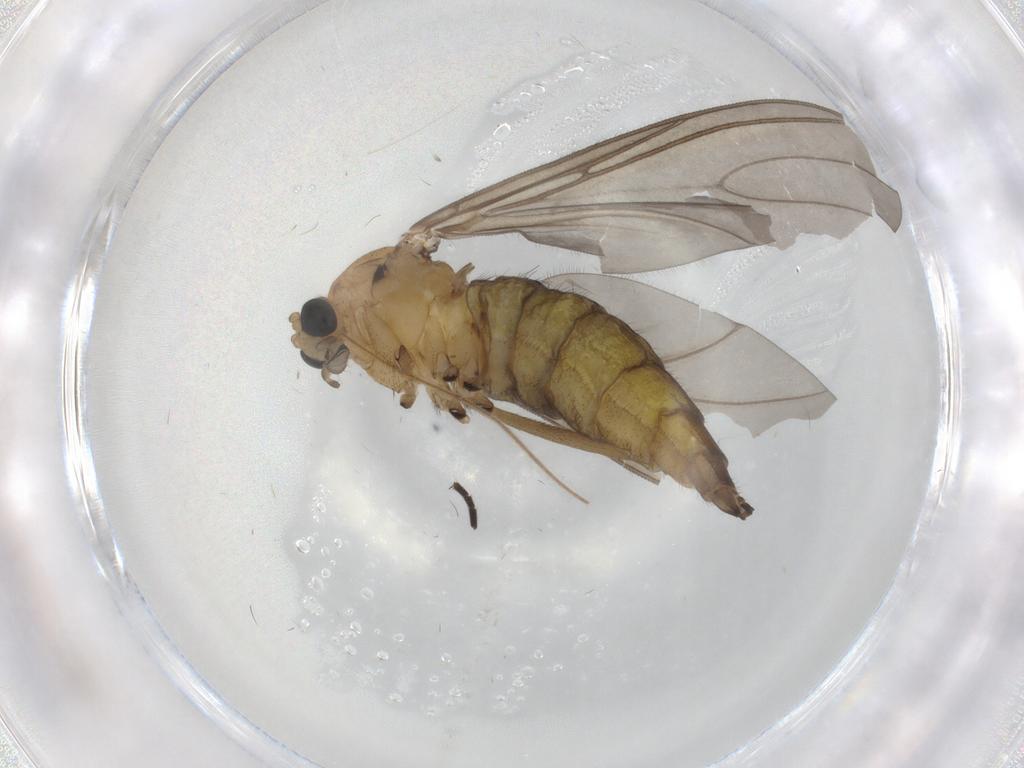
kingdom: Animalia
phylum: Arthropoda
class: Insecta
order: Diptera
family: Sciaridae
